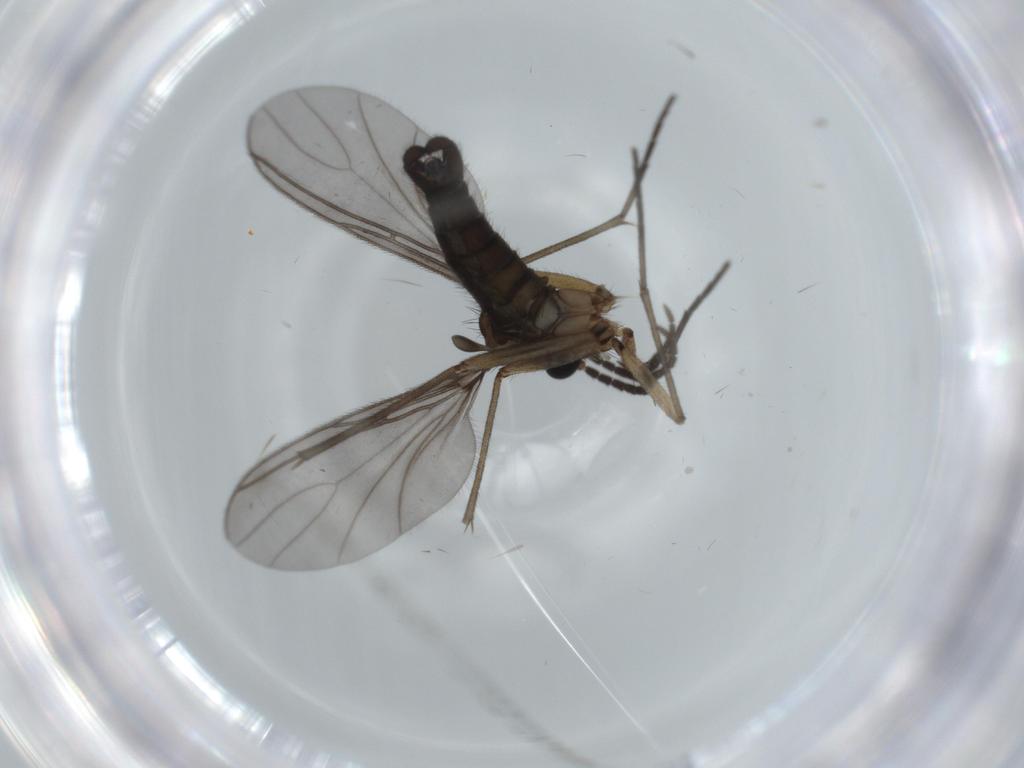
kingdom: Animalia
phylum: Arthropoda
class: Insecta
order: Diptera
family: Sciaridae
